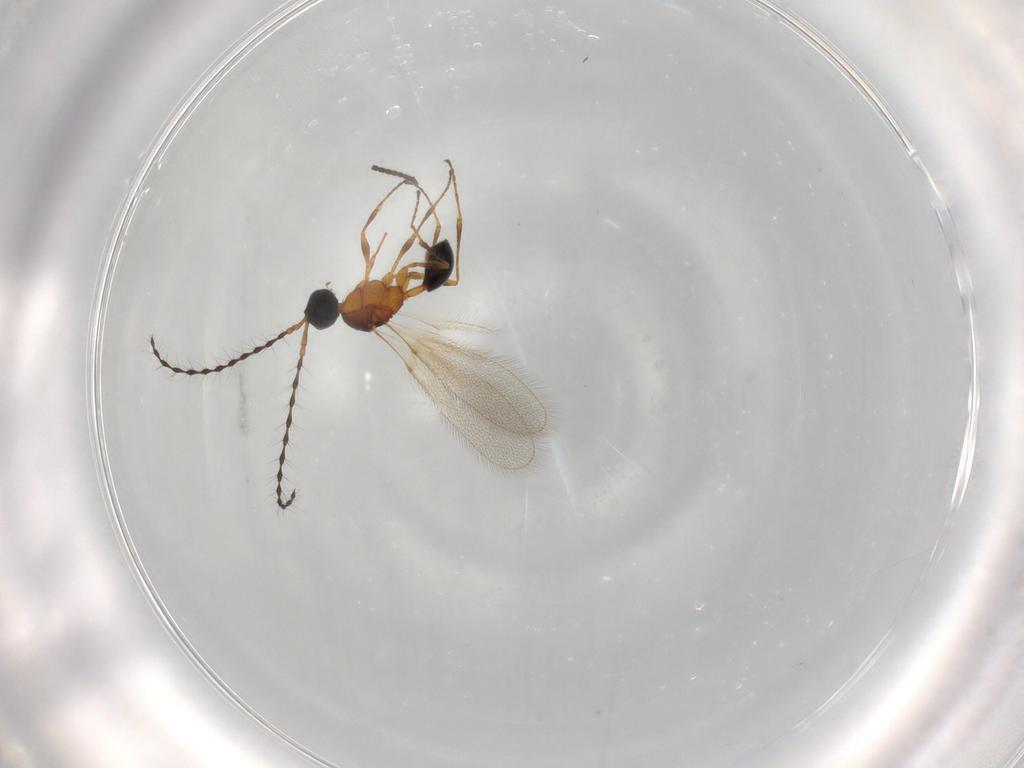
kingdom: Animalia
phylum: Arthropoda
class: Insecta
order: Hymenoptera
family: Diapriidae
